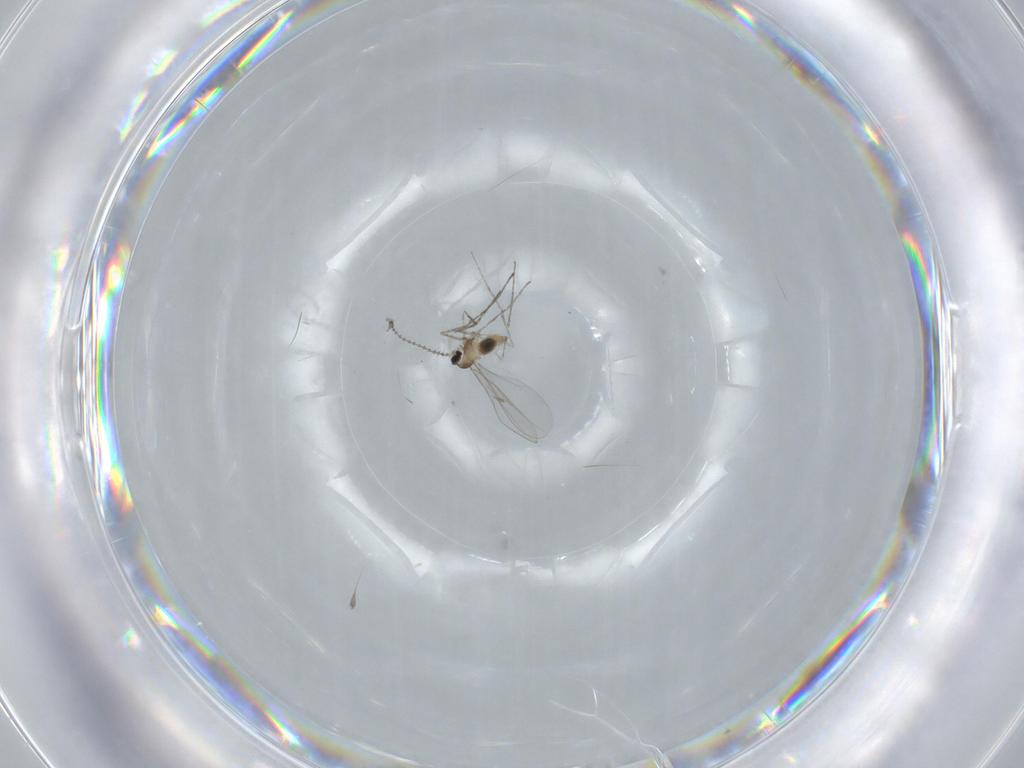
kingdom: Animalia
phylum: Arthropoda
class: Insecta
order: Diptera
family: Cecidomyiidae
